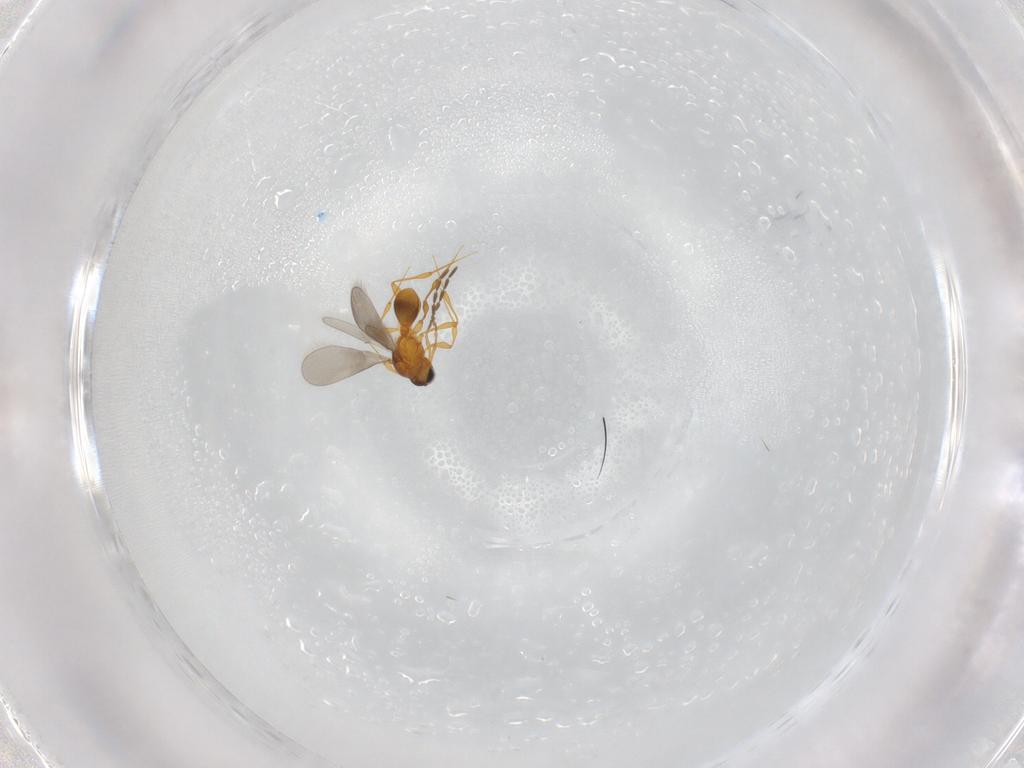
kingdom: Animalia
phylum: Arthropoda
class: Insecta
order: Hymenoptera
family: Platygastridae
